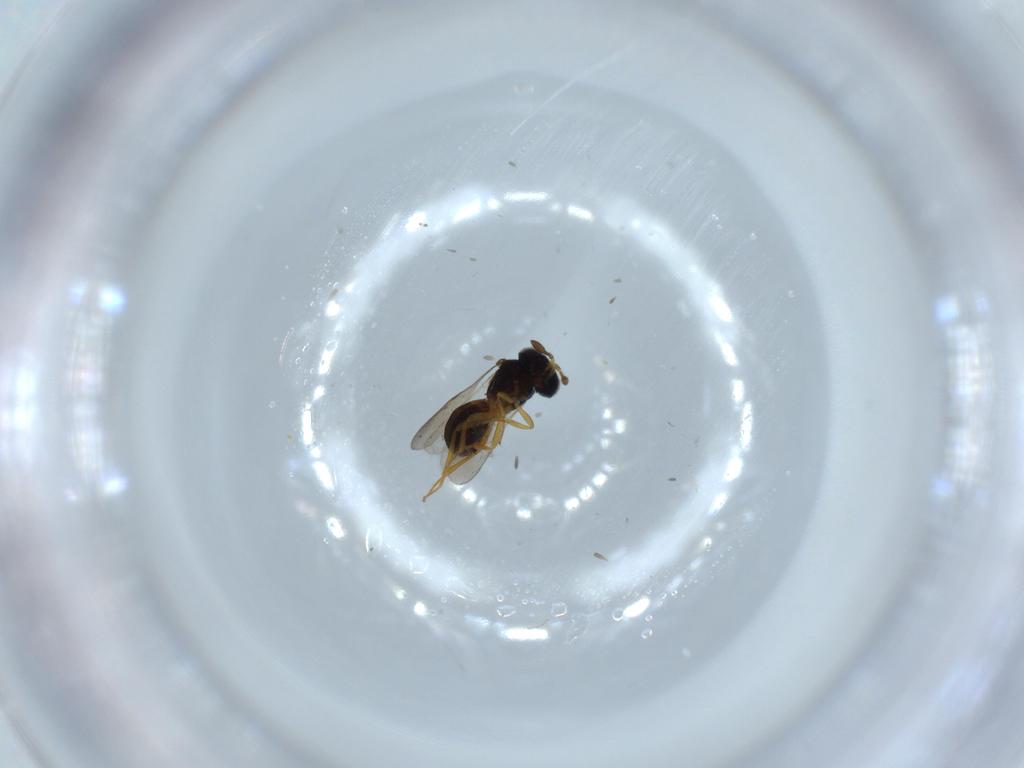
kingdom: Animalia
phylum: Arthropoda
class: Insecta
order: Hymenoptera
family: Scelionidae
